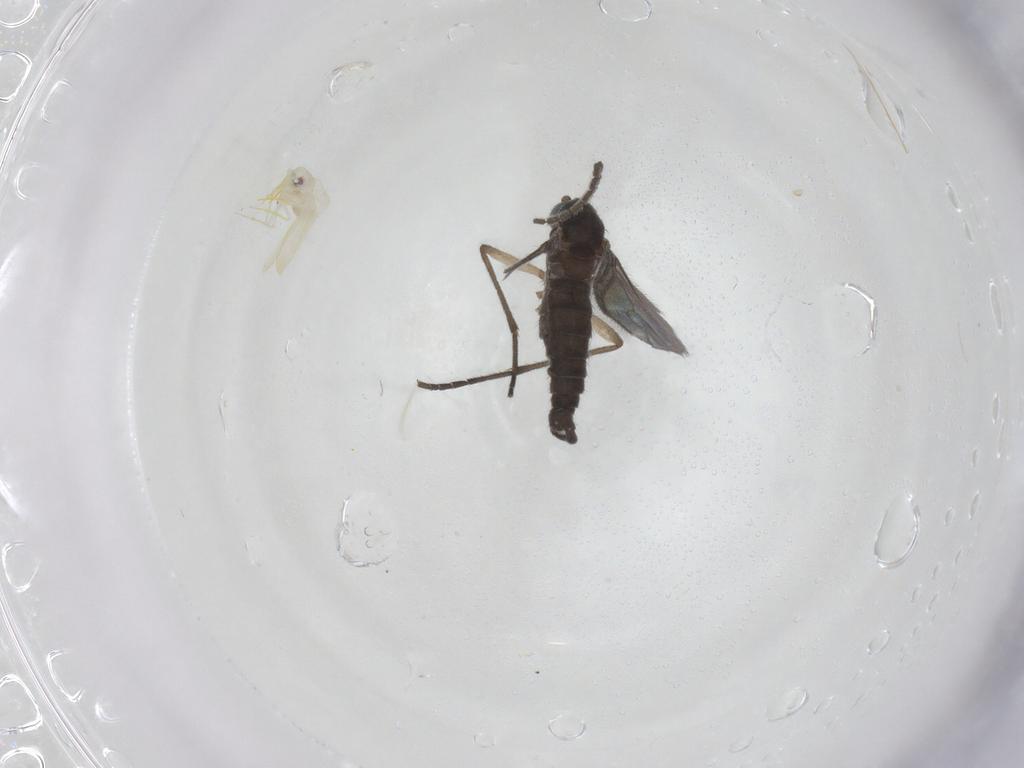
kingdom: Animalia
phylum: Arthropoda
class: Insecta
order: Diptera
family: Sciaridae
